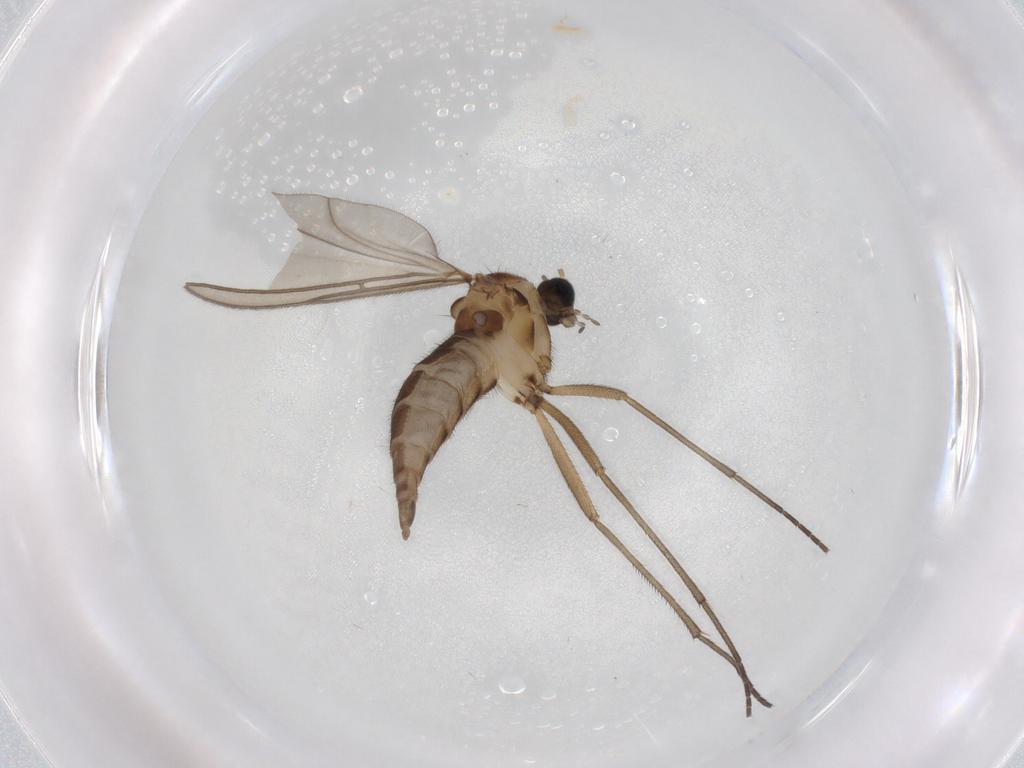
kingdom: Animalia
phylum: Arthropoda
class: Insecta
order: Diptera
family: Sciaridae
